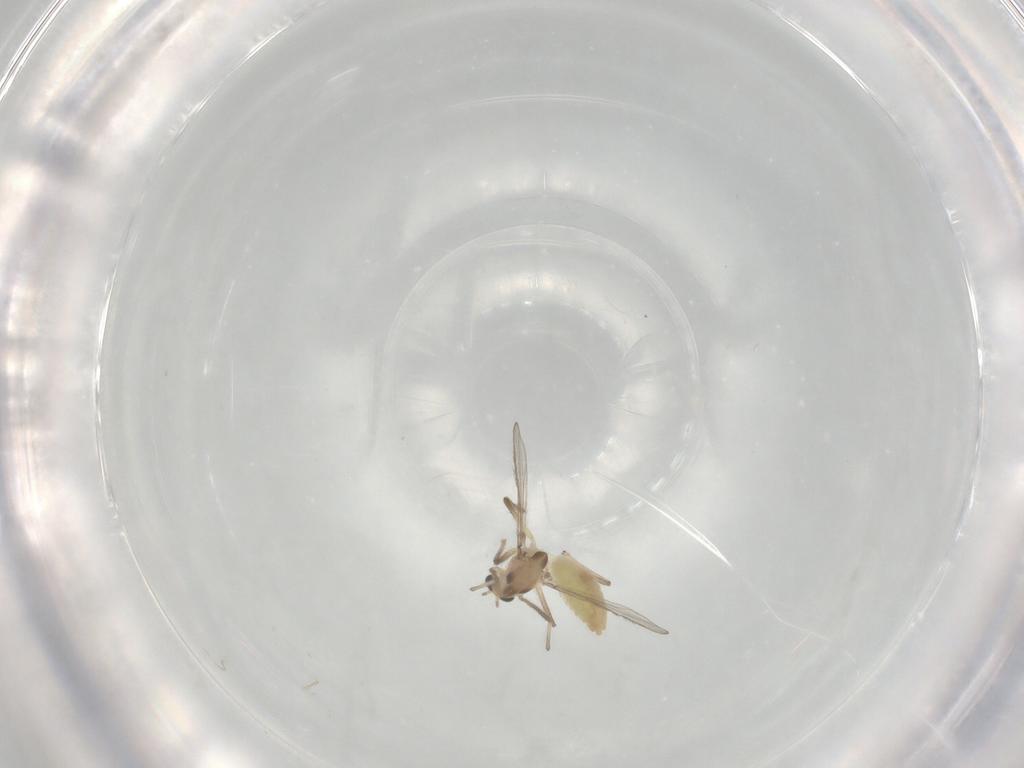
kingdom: Animalia
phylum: Arthropoda
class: Insecta
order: Diptera
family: Chironomidae
